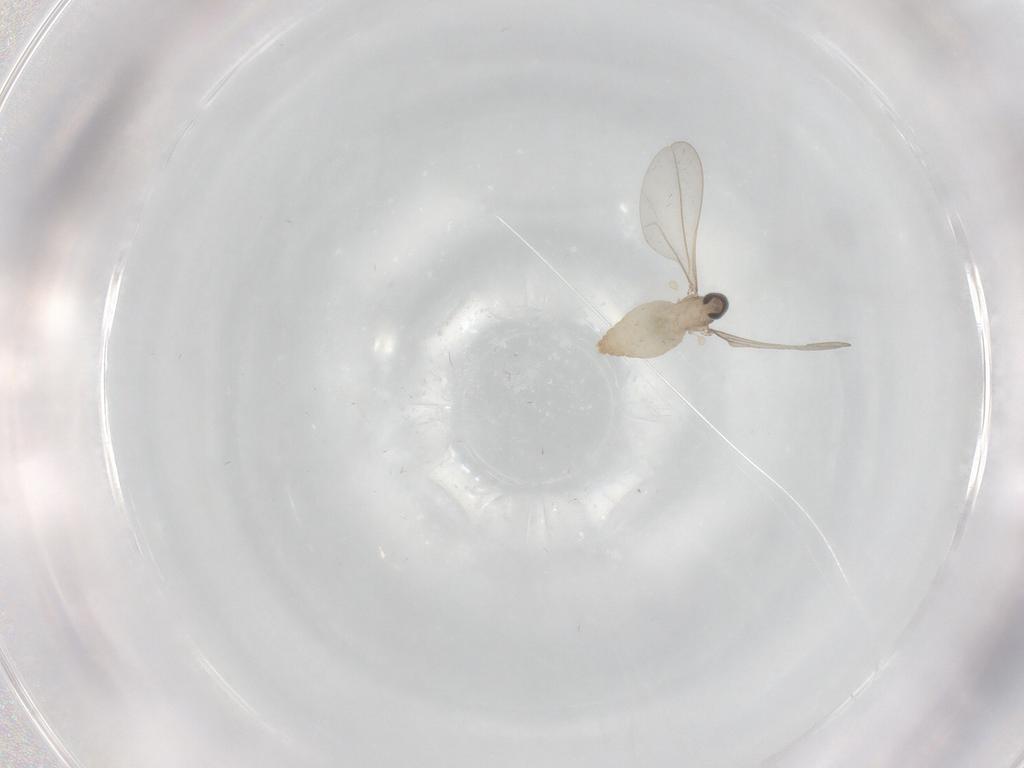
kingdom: Animalia
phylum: Arthropoda
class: Insecta
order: Diptera
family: Cecidomyiidae
